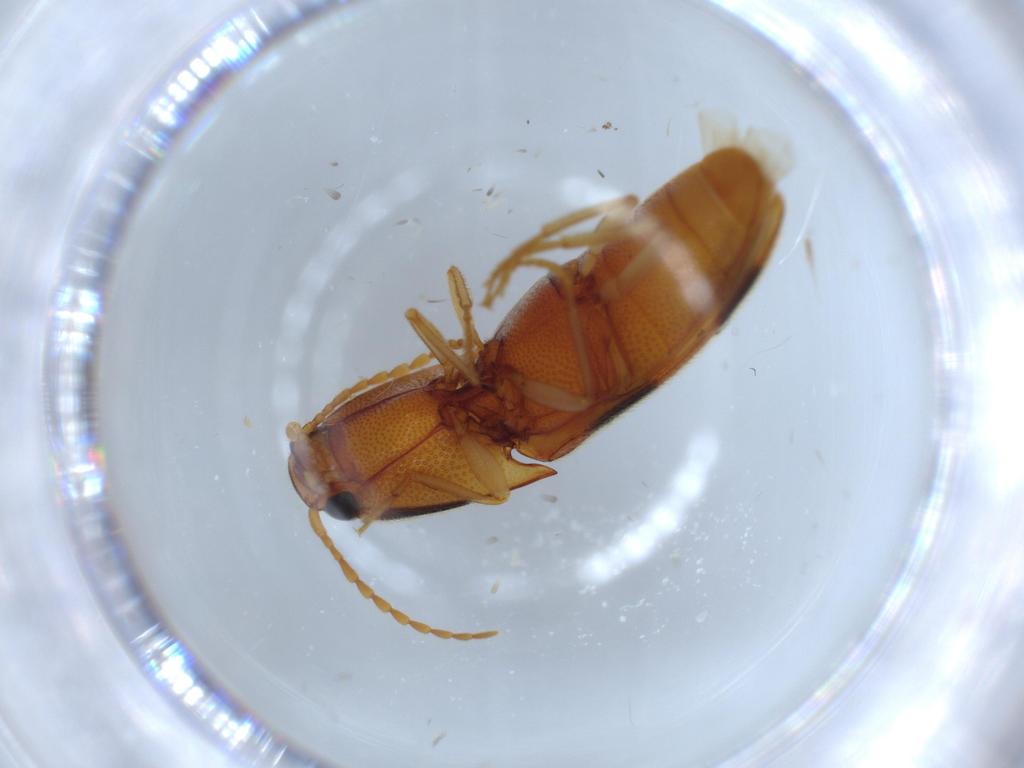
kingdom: Animalia
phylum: Arthropoda
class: Insecta
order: Coleoptera
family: Elateridae
